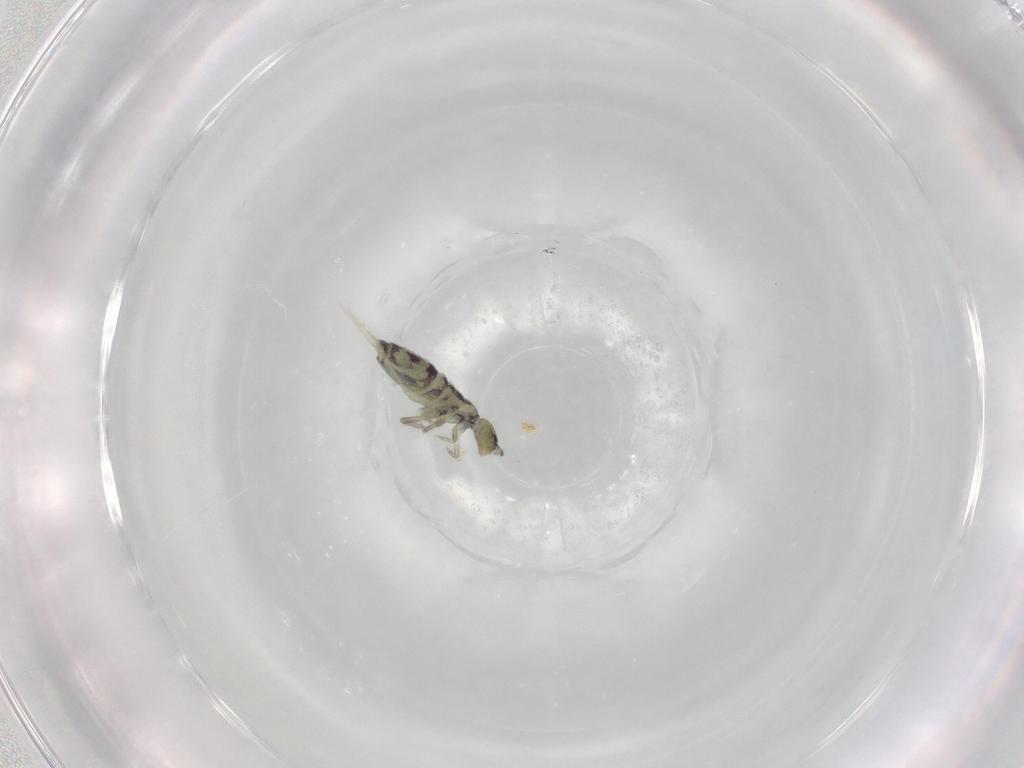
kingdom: Animalia
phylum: Arthropoda
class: Collembola
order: Entomobryomorpha
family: Entomobryidae
